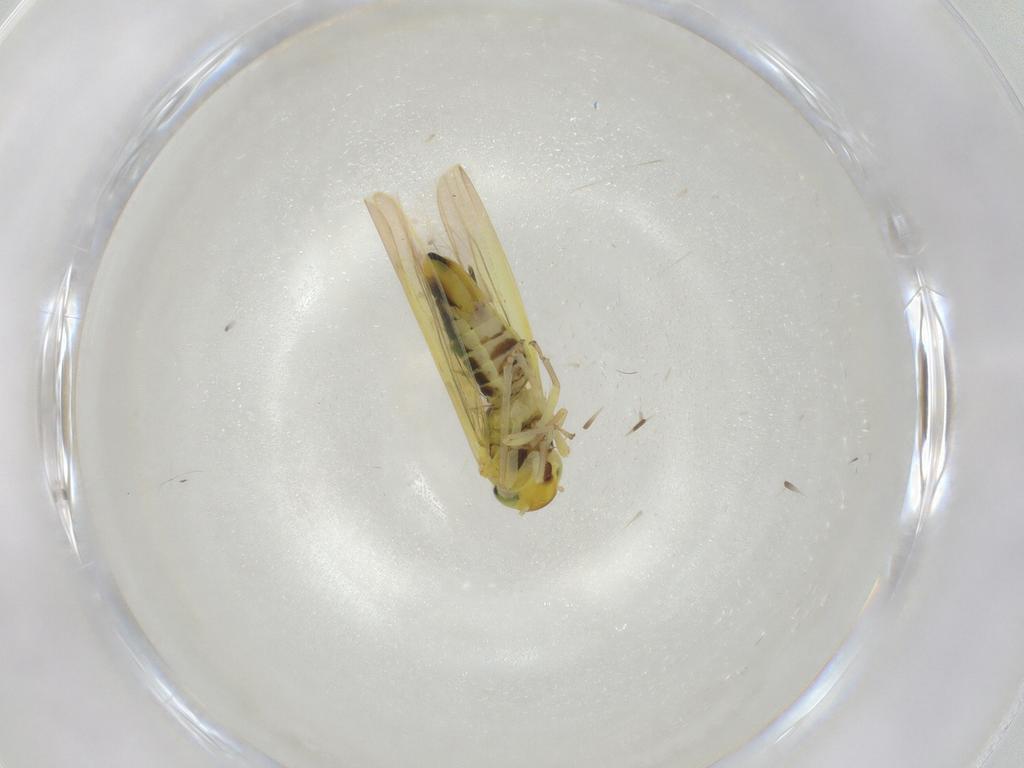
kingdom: Animalia
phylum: Arthropoda
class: Insecta
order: Hemiptera
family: Cicadellidae
